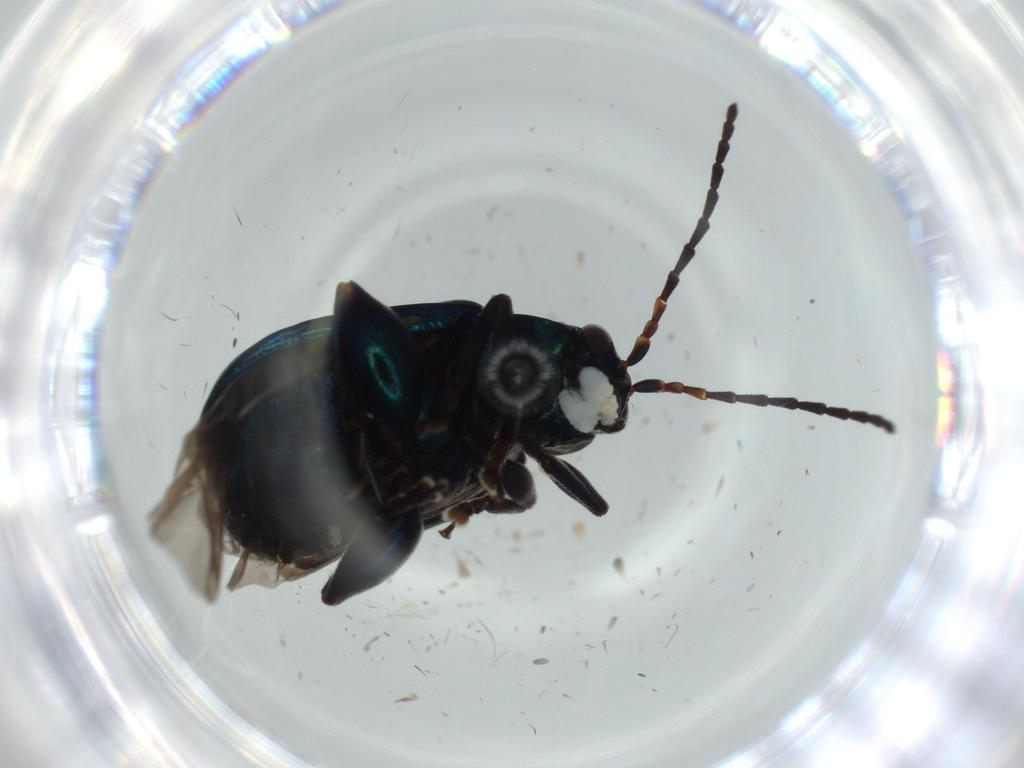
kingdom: Animalia
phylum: Arthropoda
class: Insecta
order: Coleoptera
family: Chrysomelidae
